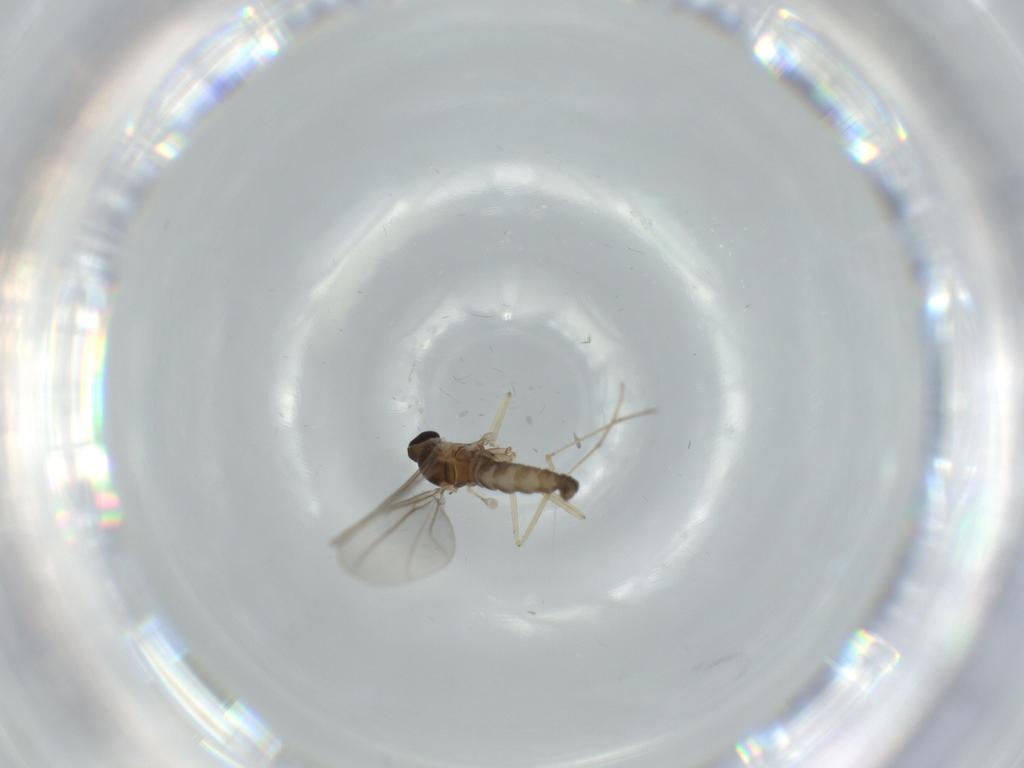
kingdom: Animalia
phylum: Arthropoda
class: Insecta
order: Diptera
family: Cecidomyiidae
